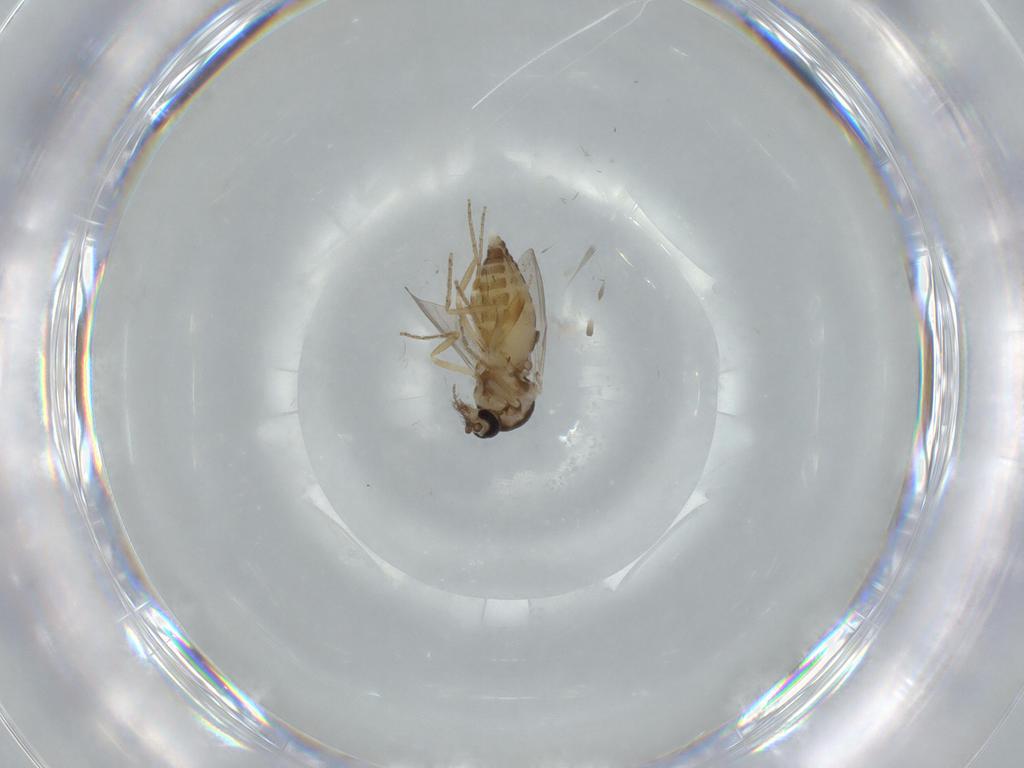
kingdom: Animalia
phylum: Arthropoda
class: Insecta
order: Diptera
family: Ceratopogonidae
